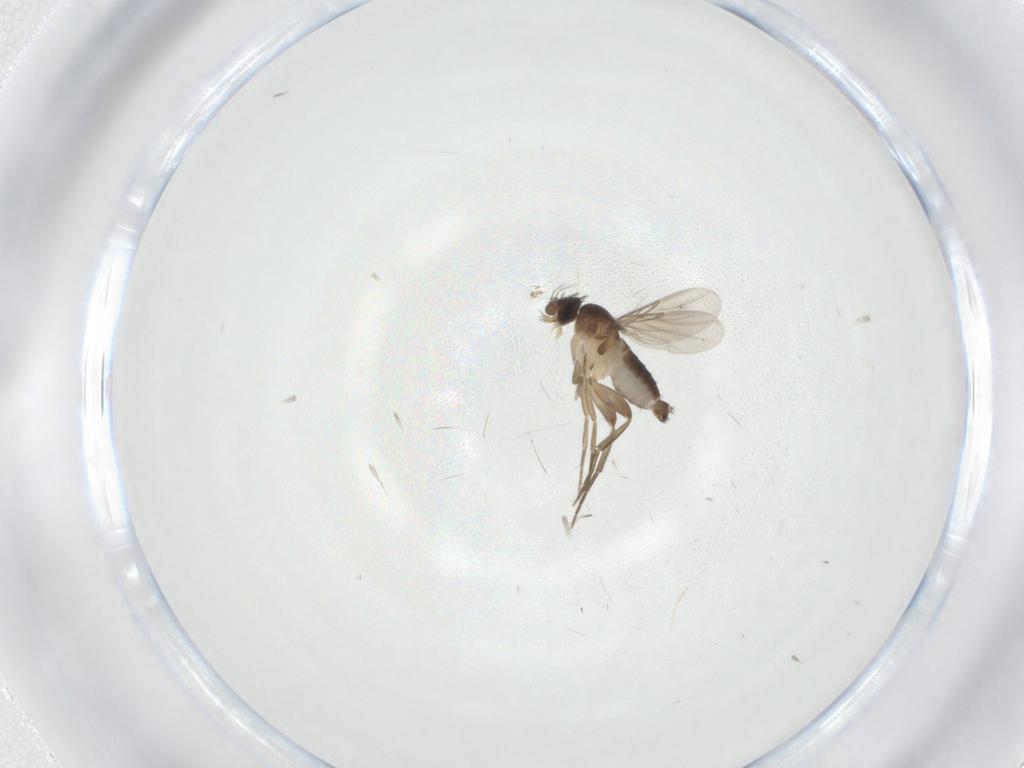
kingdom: Animalia
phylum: Arthropoda
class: Insecta
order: Diptera
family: Phoridae
